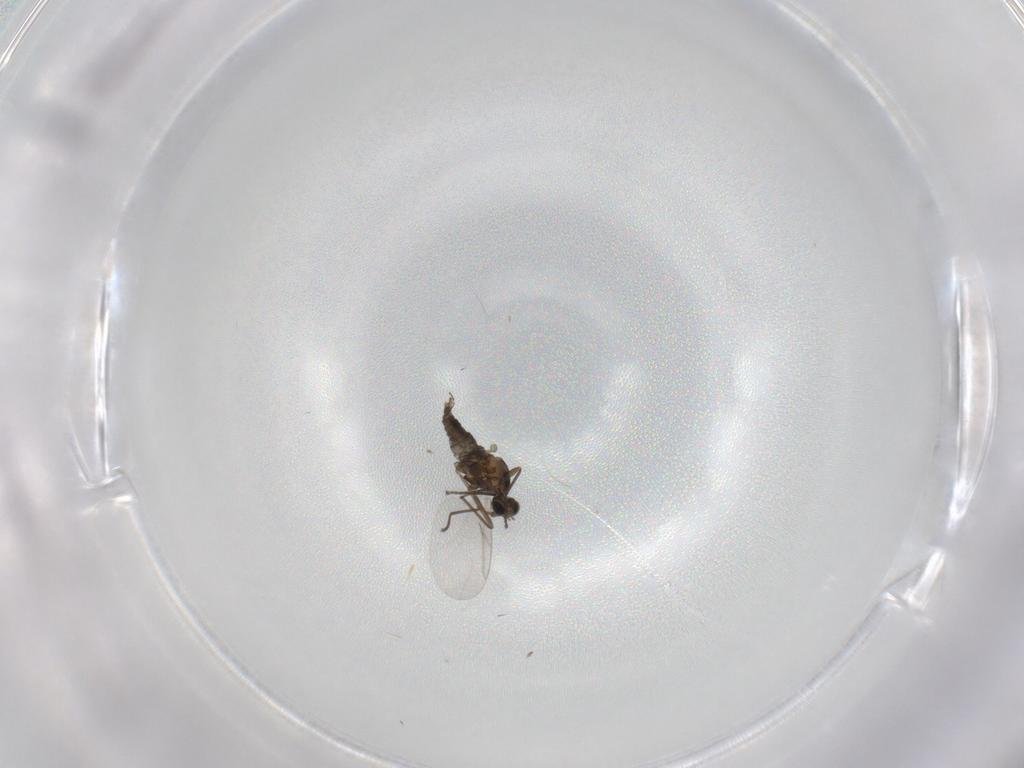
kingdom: Animalia
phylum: Arthropoda
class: Insecta
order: Diptera
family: Cecidomyiidae
